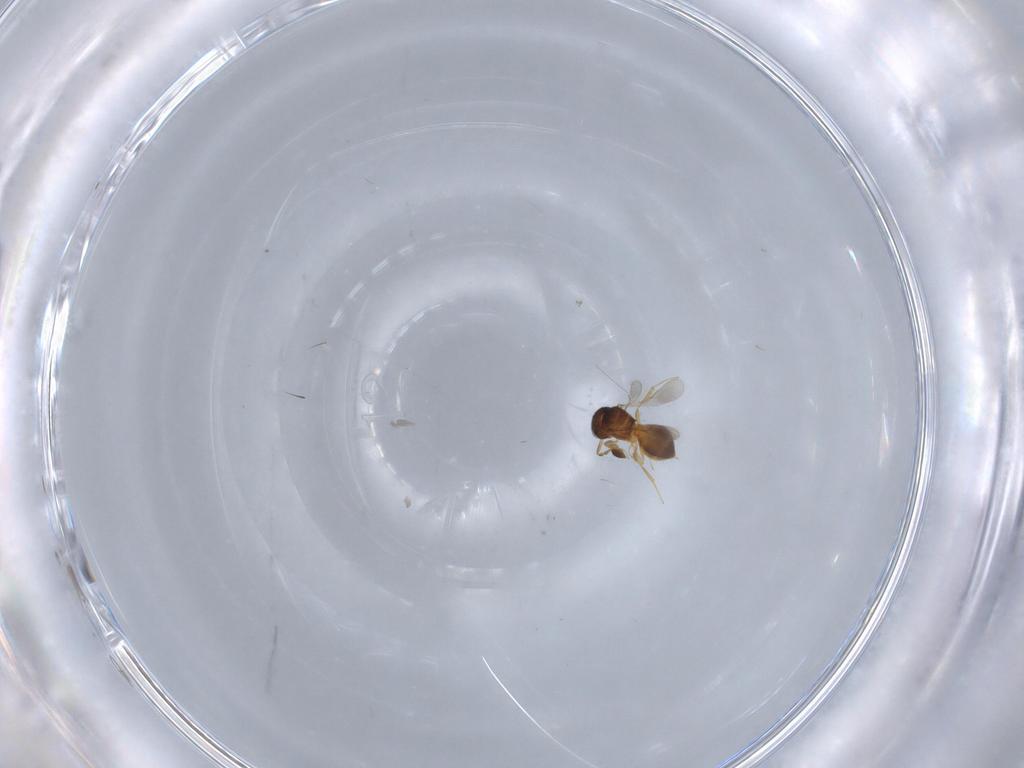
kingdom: Animalia
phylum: Arthropoda
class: Insecta
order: Hymenoptera
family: Scelionidae
